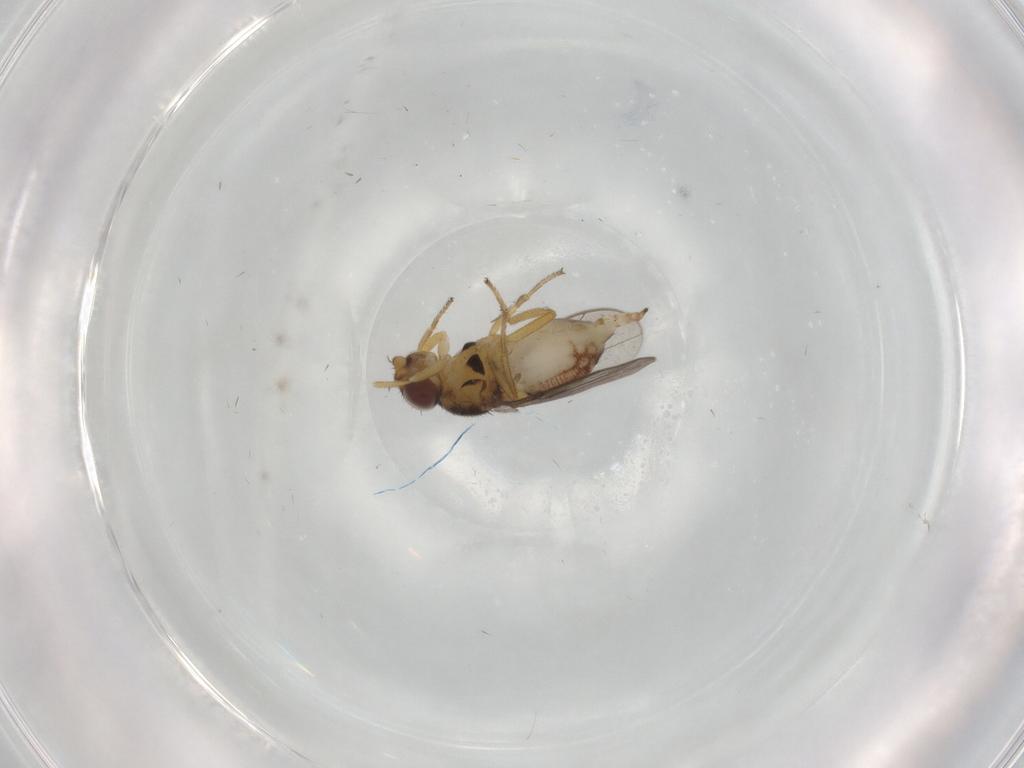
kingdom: Animalia
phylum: Arthropoda
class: Insecta
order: Diptera
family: Chloropidae
